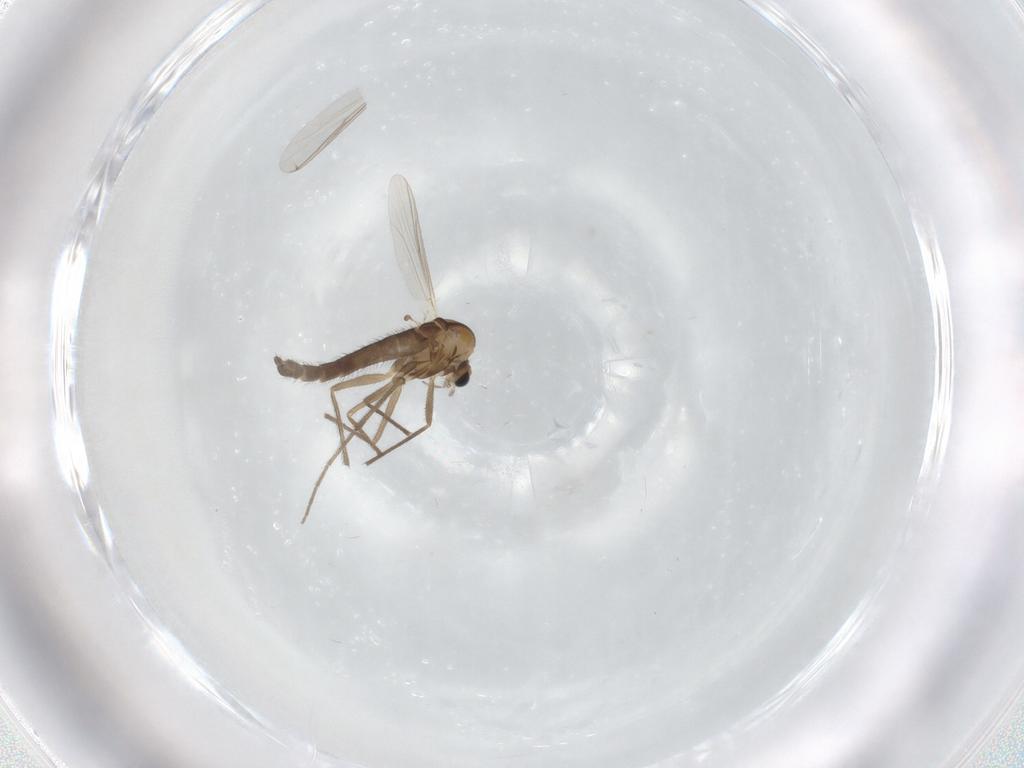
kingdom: Animalia
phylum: Arthropoda
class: Insecta
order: Diptera
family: Chironomidae
